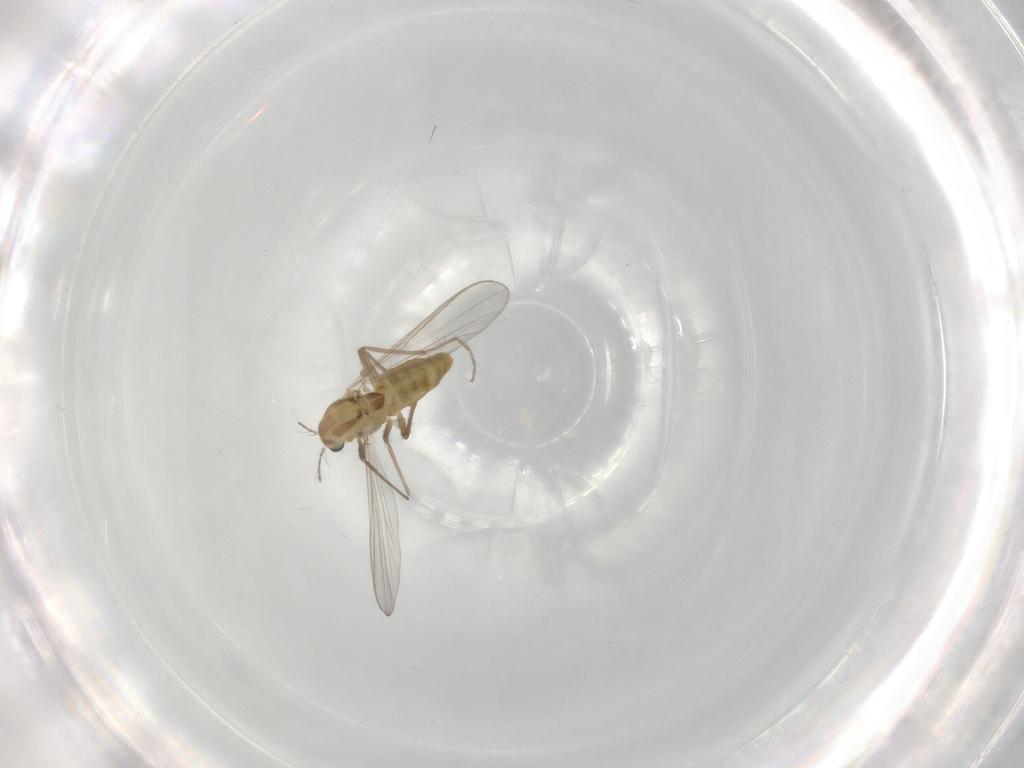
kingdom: Animalia
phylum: Arthropoda
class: Insecta
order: Diptera
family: Chironomidae
